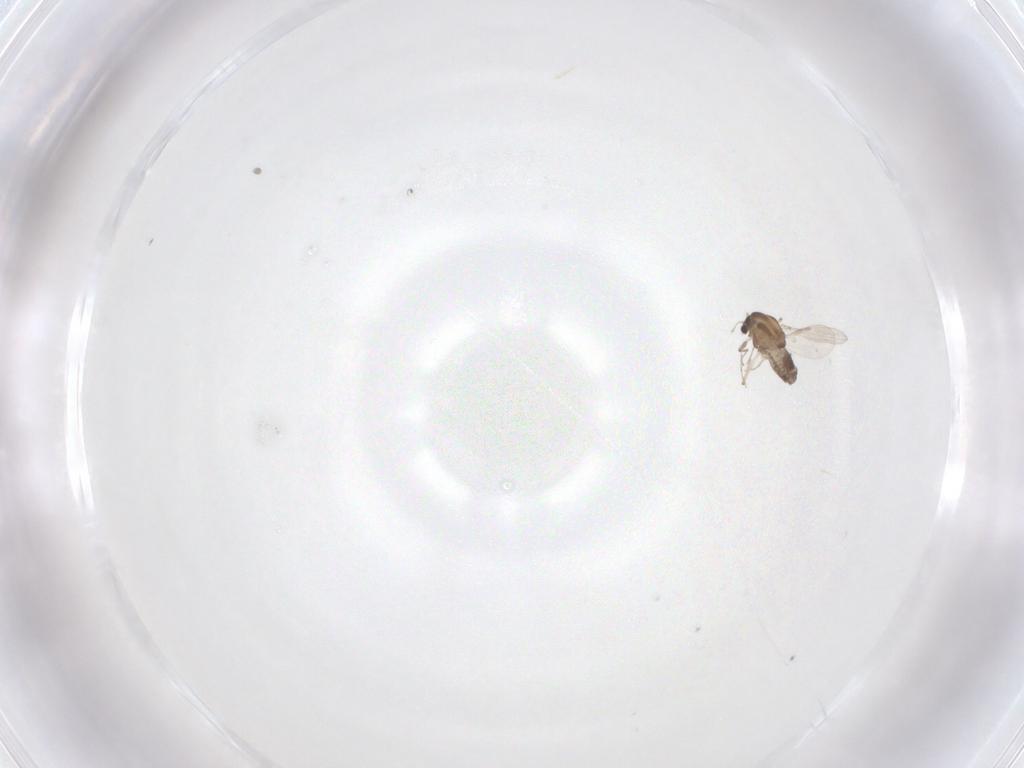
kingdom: Animalia
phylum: Arthropoda
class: Insecta
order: Diptera
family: Chironomidae
